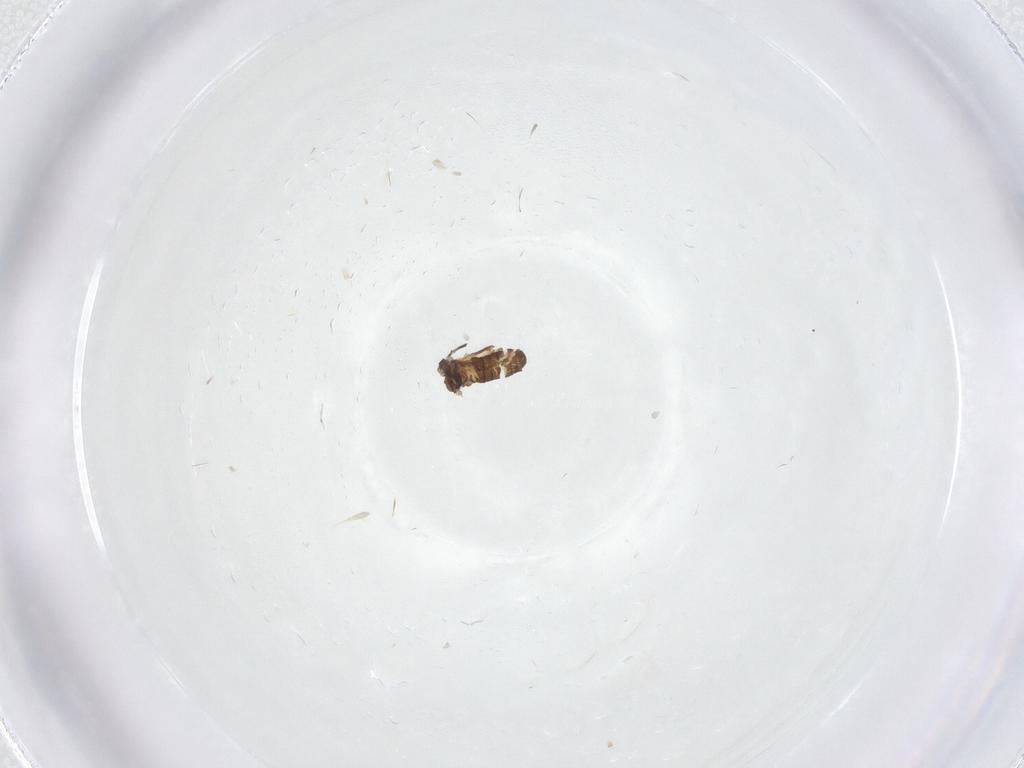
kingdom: Animalia
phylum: Arthropoda
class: Insecta
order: Diptera
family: Ceratopogonidae
